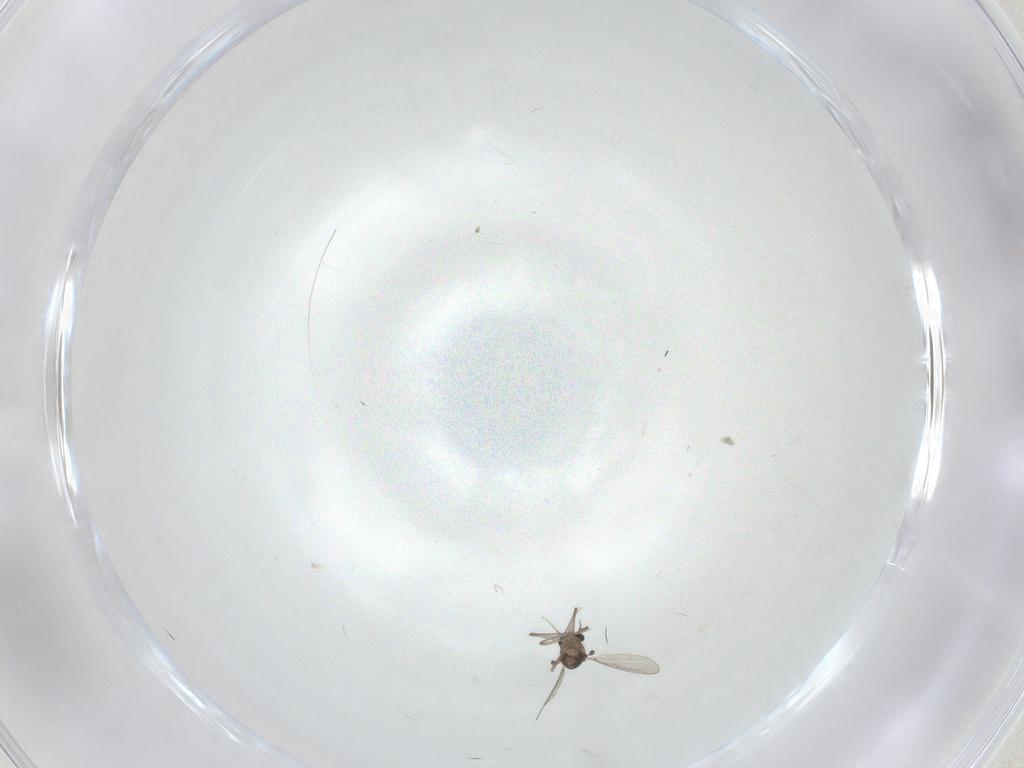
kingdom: Animalia
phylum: Arthropoda
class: Insecta
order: Diptera
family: Chironomidae
